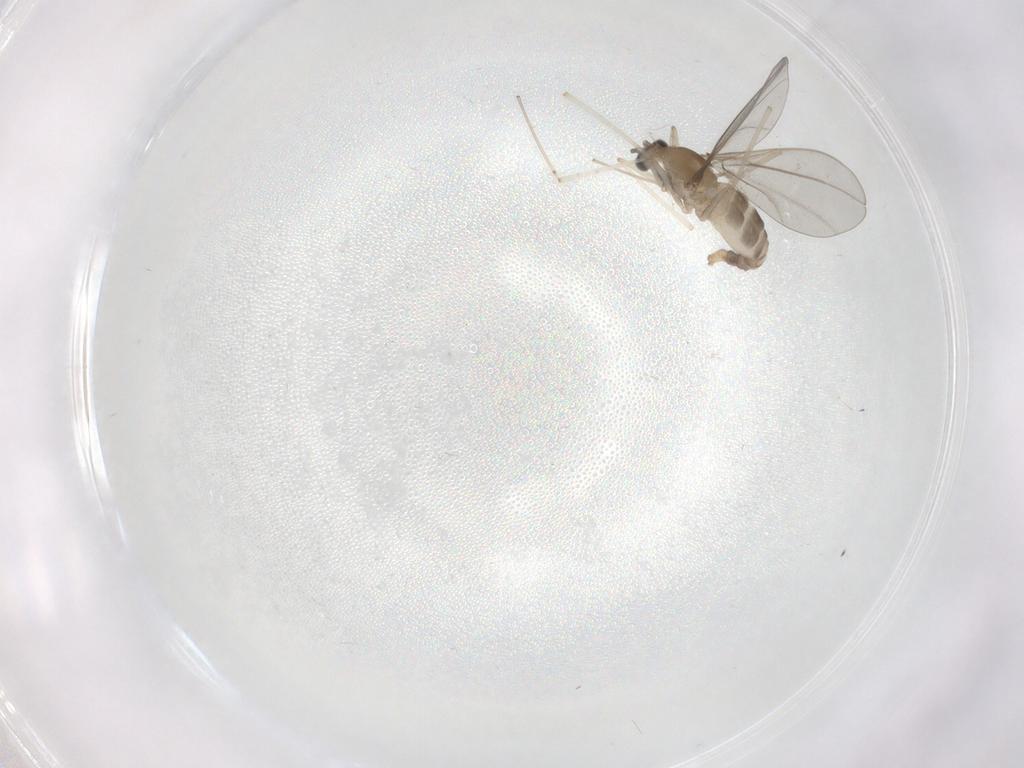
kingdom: Animalia
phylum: Arthropoda
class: Insecta
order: Diptera
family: Cecidomyiidae
